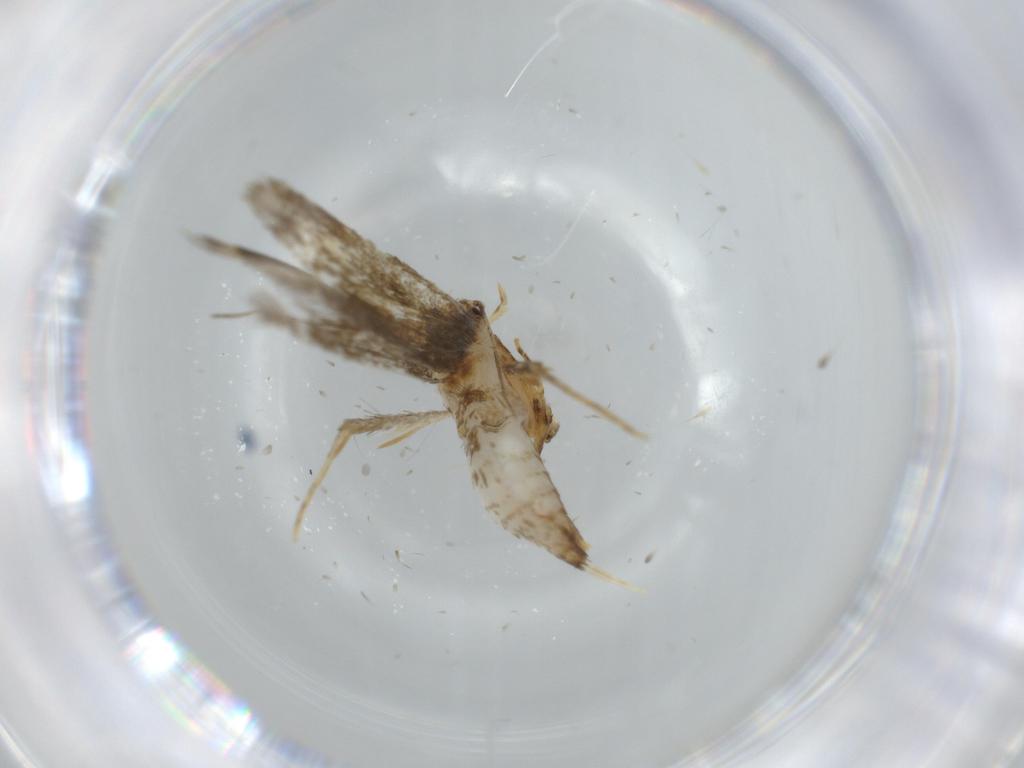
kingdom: Animalia
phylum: Arthropoda
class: Insecta
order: Lepidoptera
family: Tineidae
